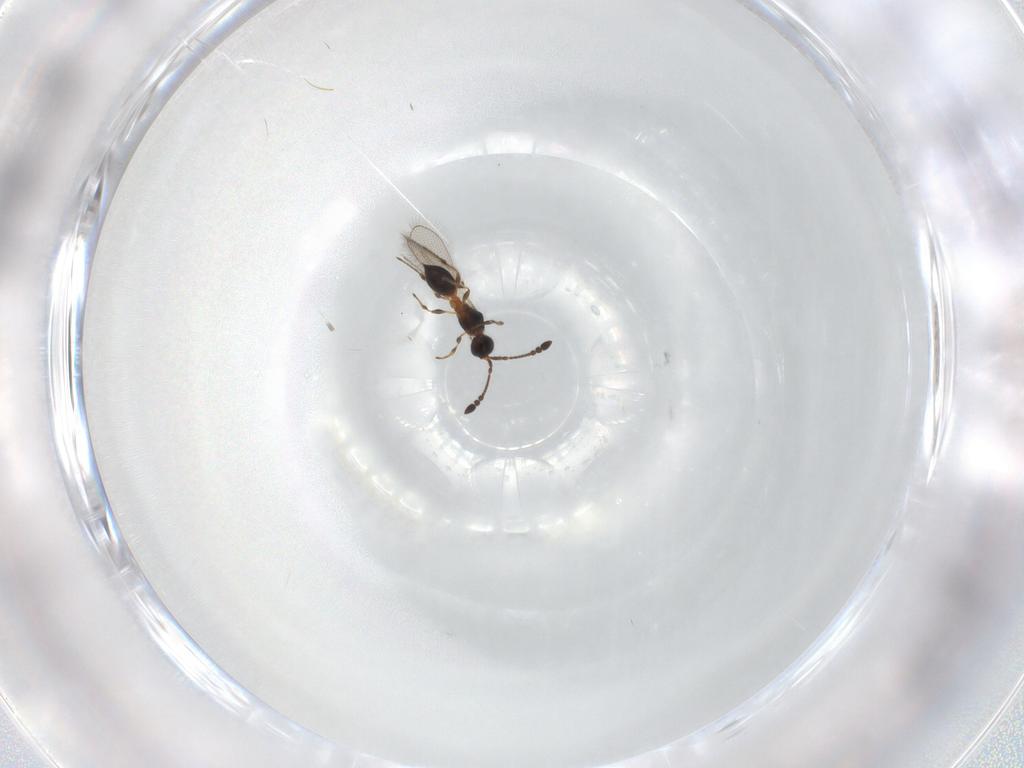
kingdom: Animalia
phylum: Arthropoda
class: Insecta
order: Hymenoptera
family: Diapriidae
